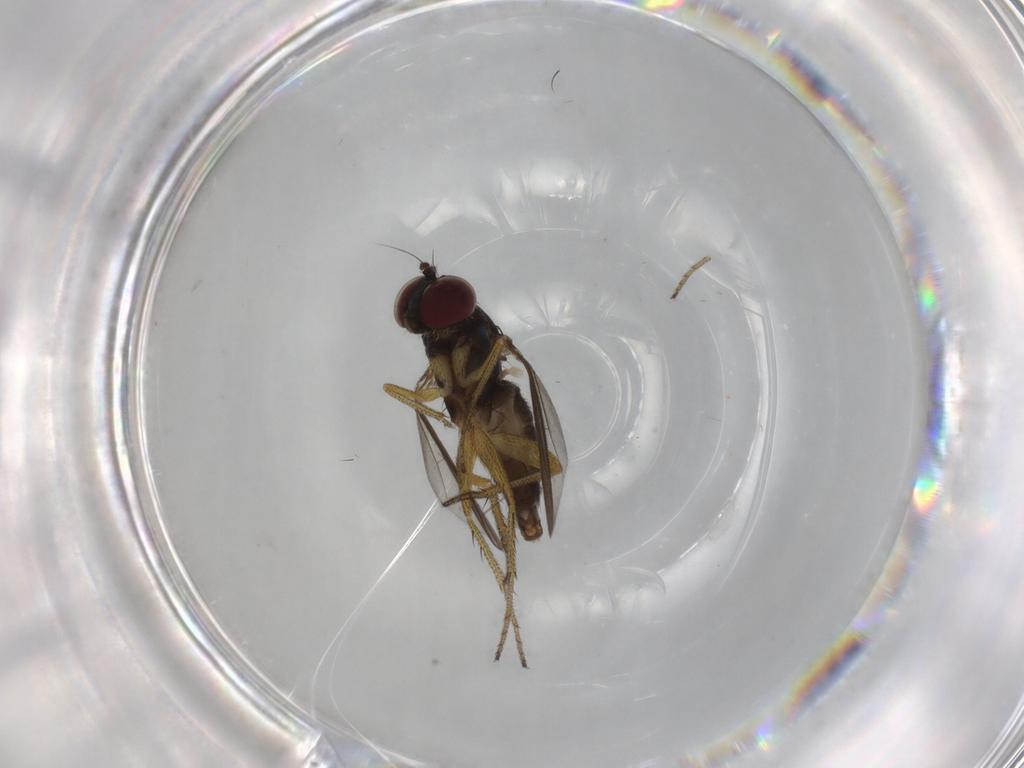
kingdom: Animalia
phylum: Arthropoda
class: Insecta
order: Diptera
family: Dolichopodidae
